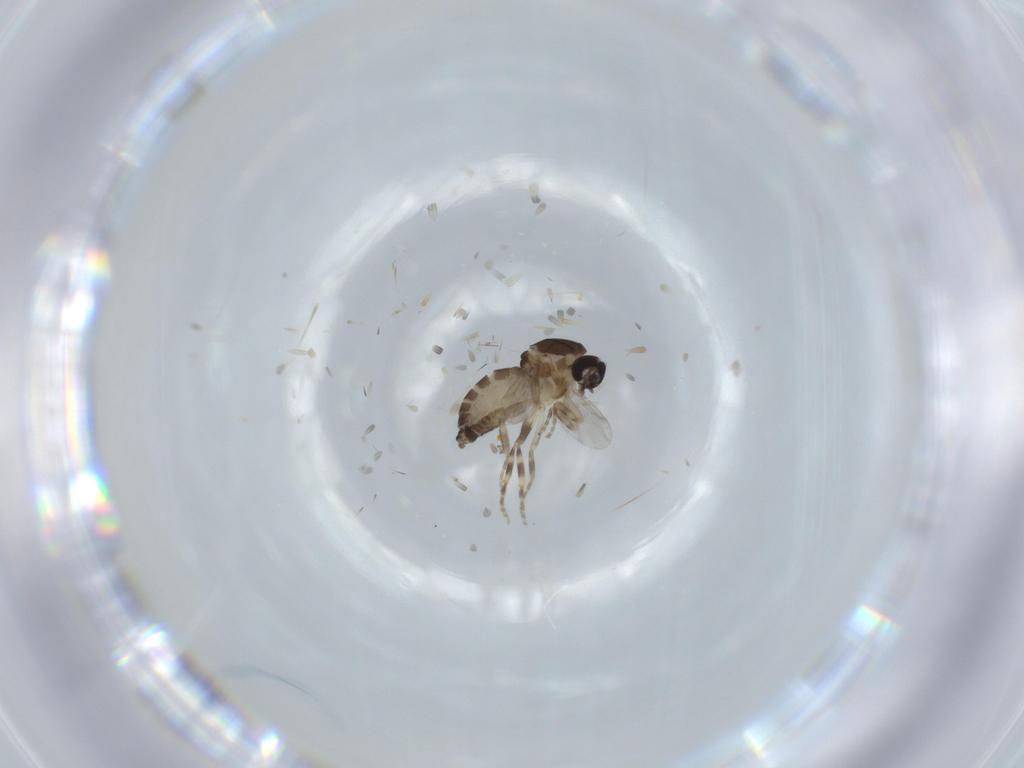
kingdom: Animalia
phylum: Arthropoda
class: Insecta
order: Diptera
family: Ceratopogonidae
